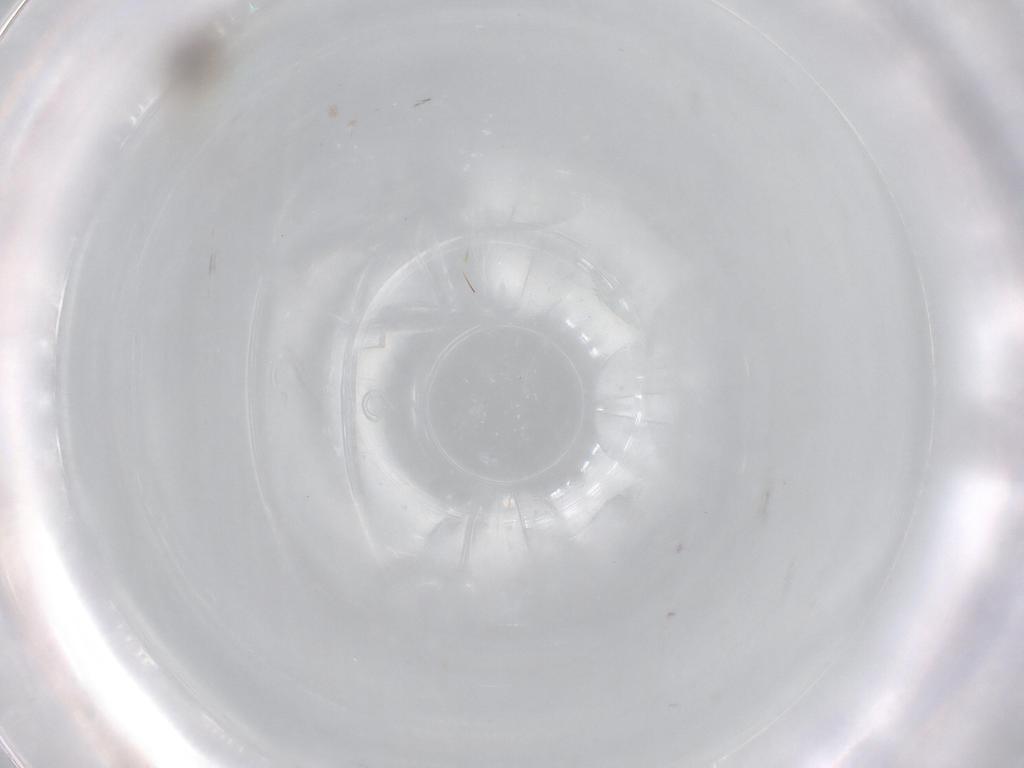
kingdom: Animalia
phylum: Arthropoda
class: Insecta
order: Diptera
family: Cecidomyiidae
